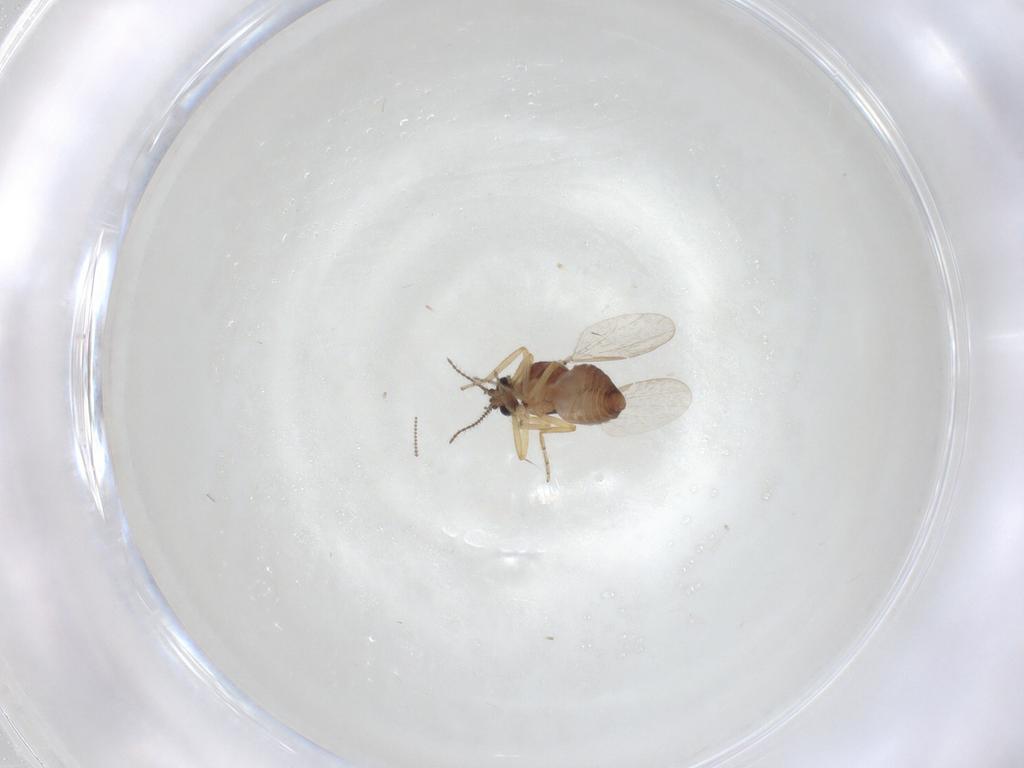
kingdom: Animalia
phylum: Arthropoda
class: Insecta
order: Diptera
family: Ceratopogonidae
